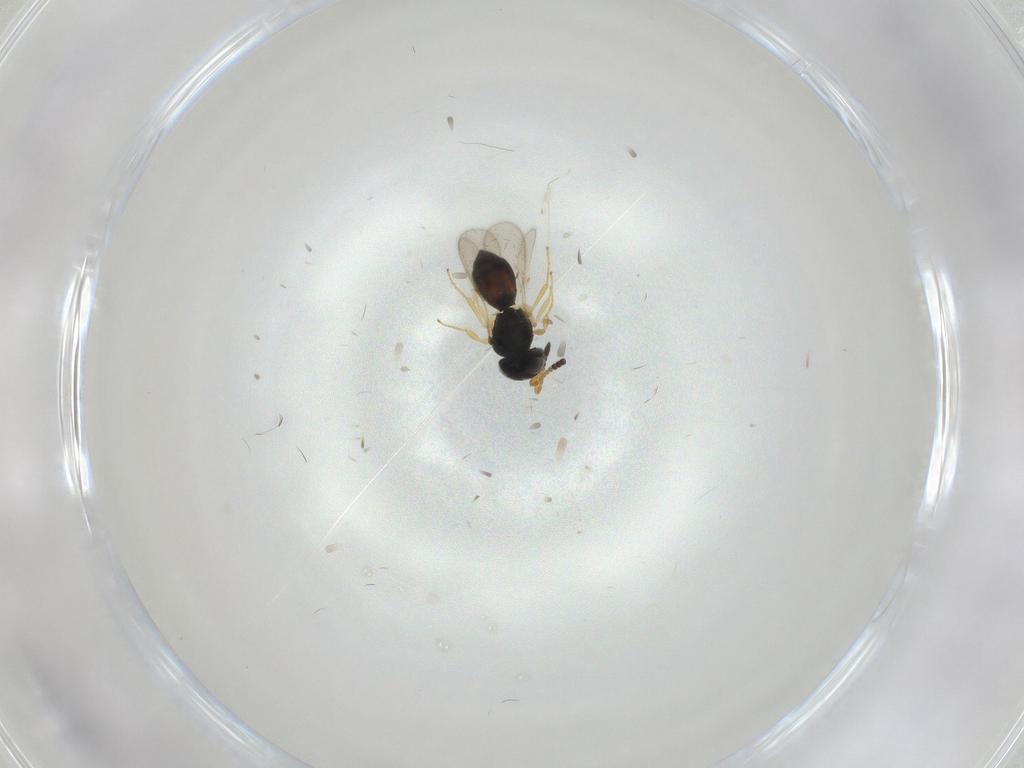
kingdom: Animalia
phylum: Arthropoda
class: Insecta
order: Hymenoptera
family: Scelionidae
